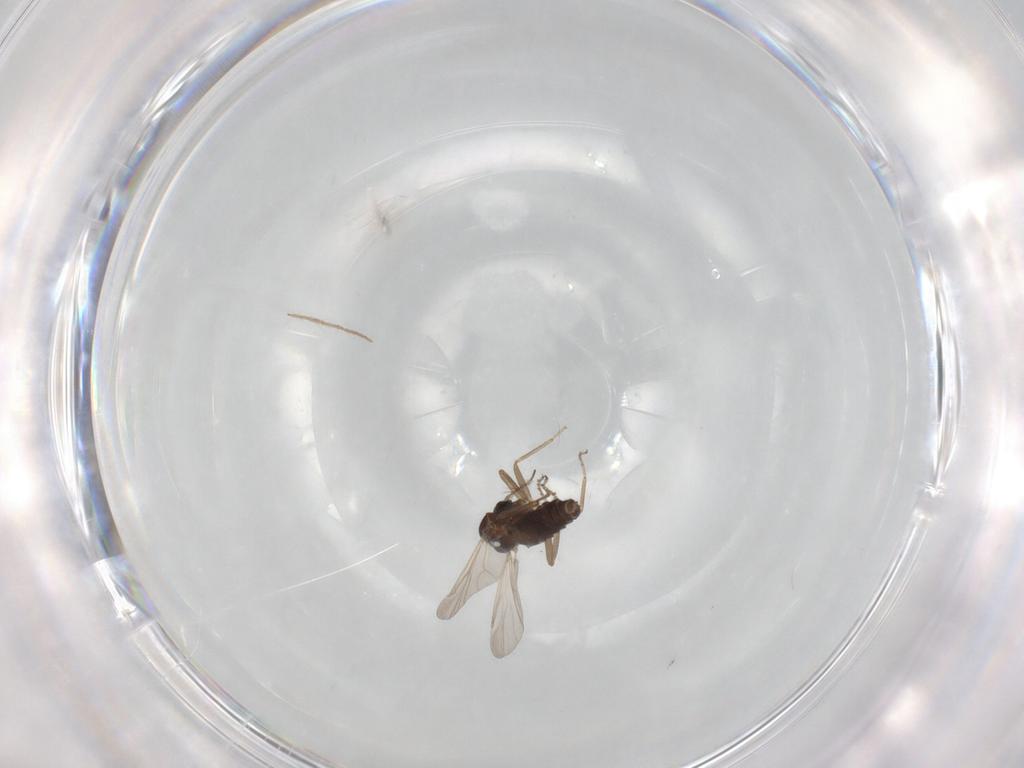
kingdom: Animalia
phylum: Arthropoda
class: Insecta
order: Diptera
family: Chironomidae
